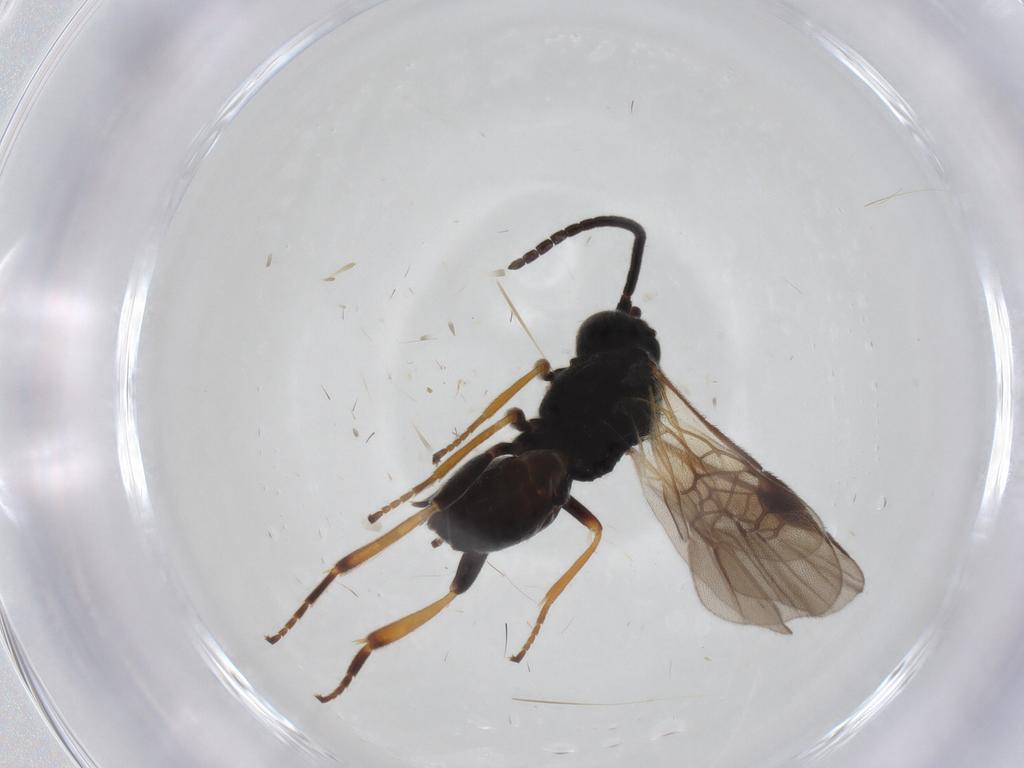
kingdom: Animalia
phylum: Arthropoda
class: Insecta
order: Hymenoptera
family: Braconidae
